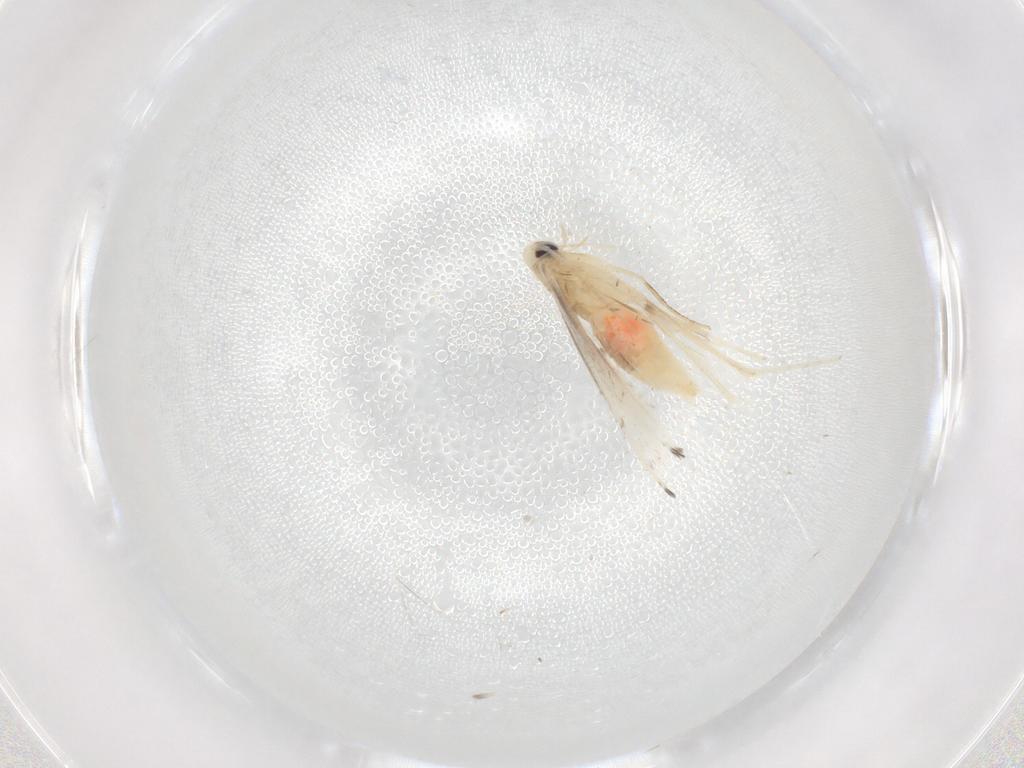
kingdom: Animalia
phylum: Arthropoda
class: Insecta
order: Lepidoptera
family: Gracillariidae
